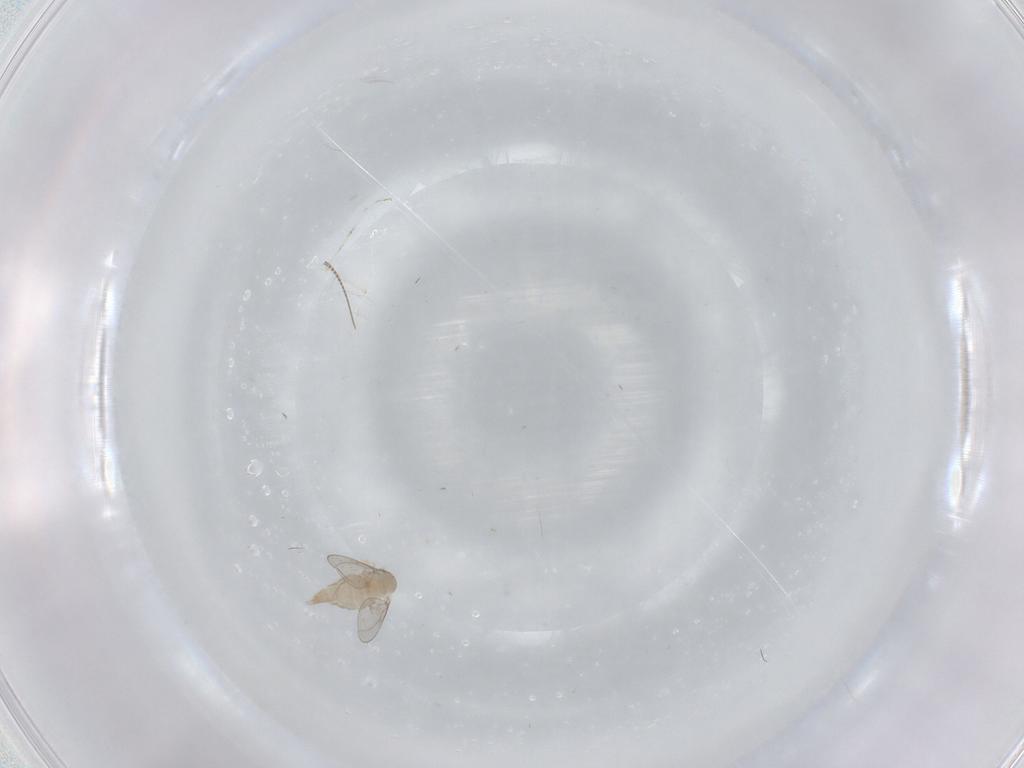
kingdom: Animalia
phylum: Arthropoda
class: Insecta
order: Diptera
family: Cecidomyiidae
